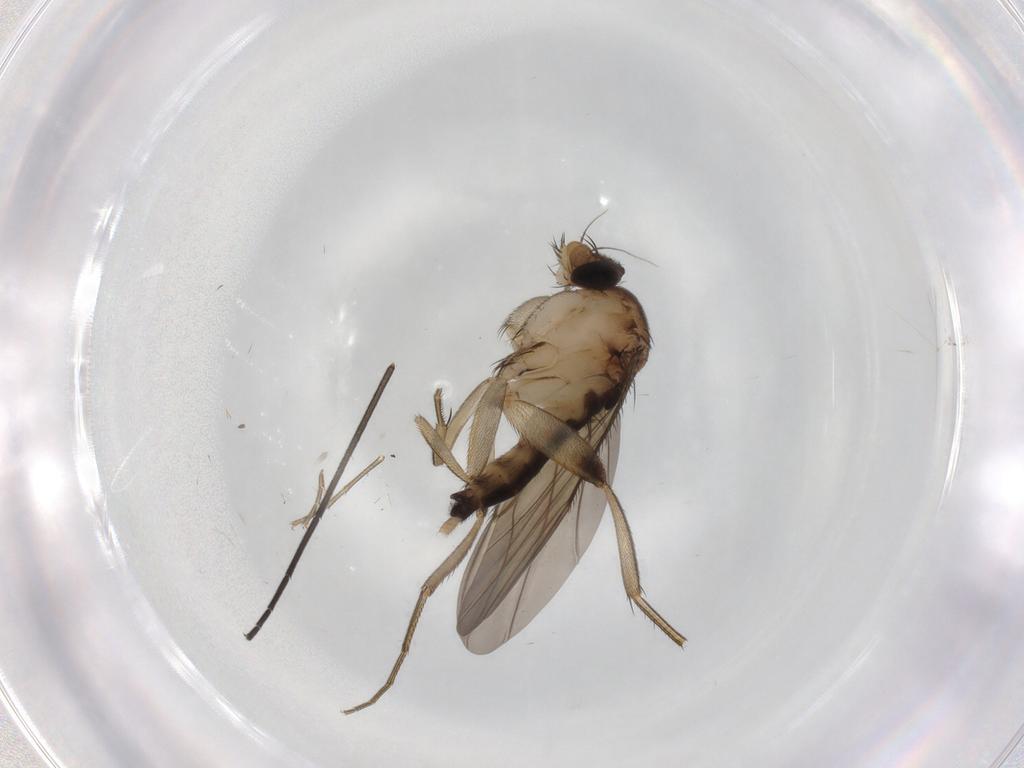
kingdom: Animalia
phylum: Arthropoda
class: Insecta
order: Diptera
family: Phoridae
